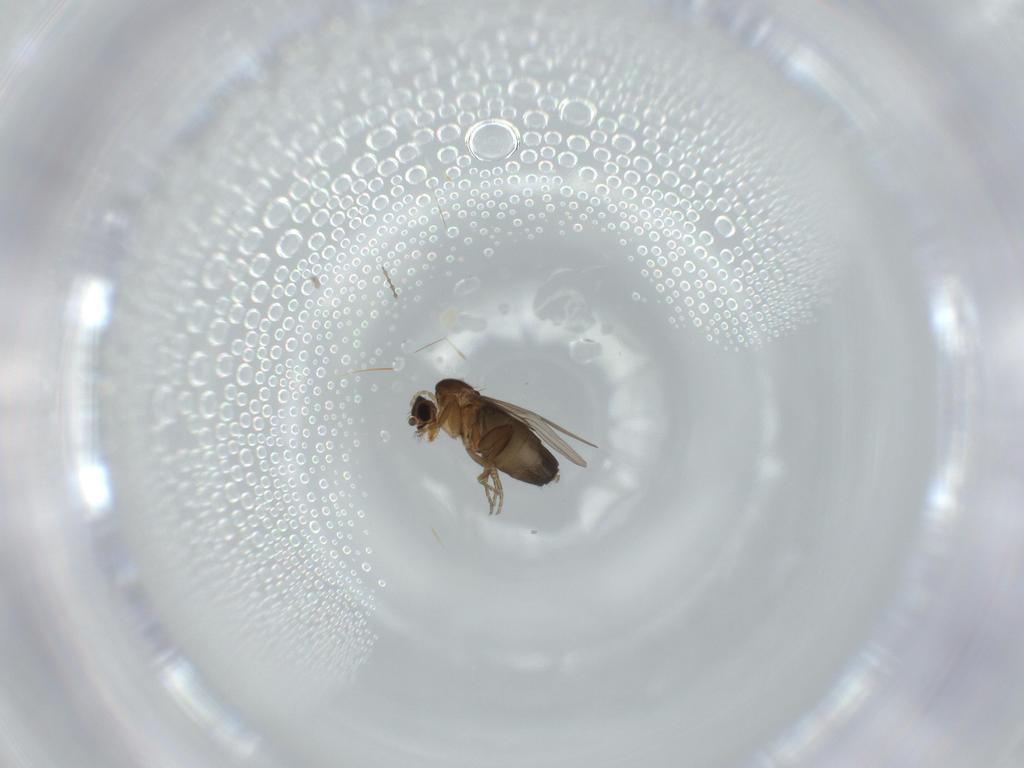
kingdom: Animalia
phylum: Arthropoda
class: Insecta
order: Diptera
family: Phoridae
